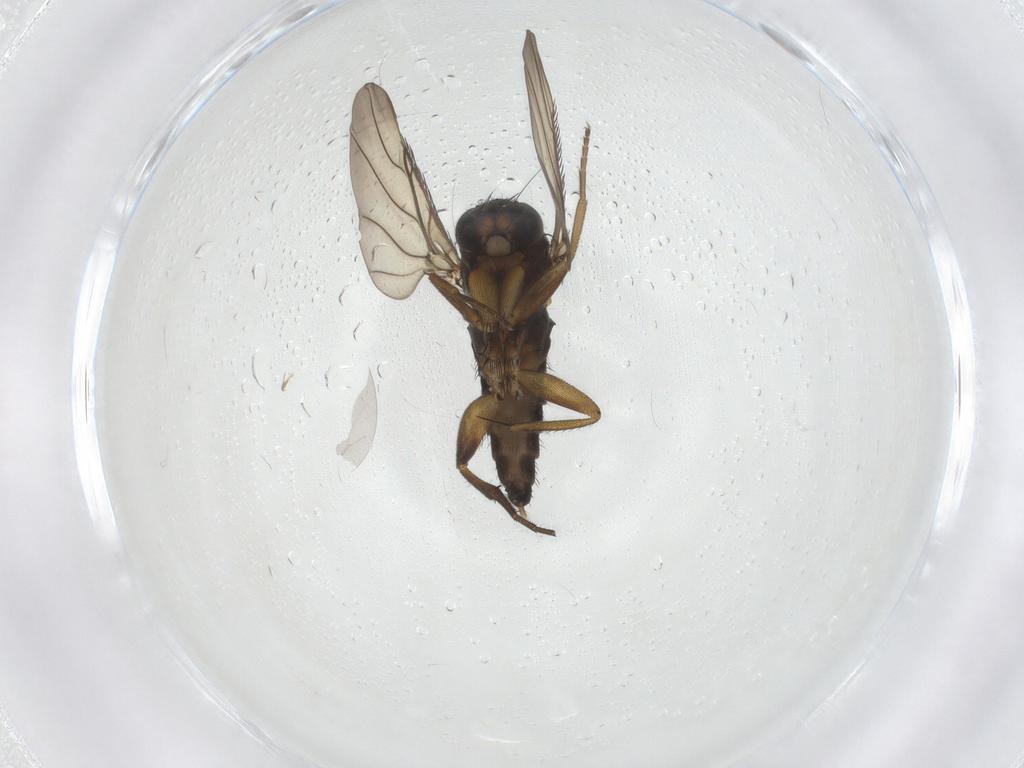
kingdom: Animalia
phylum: Arthropoda
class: Insecta
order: Diptera
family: Phoridae
